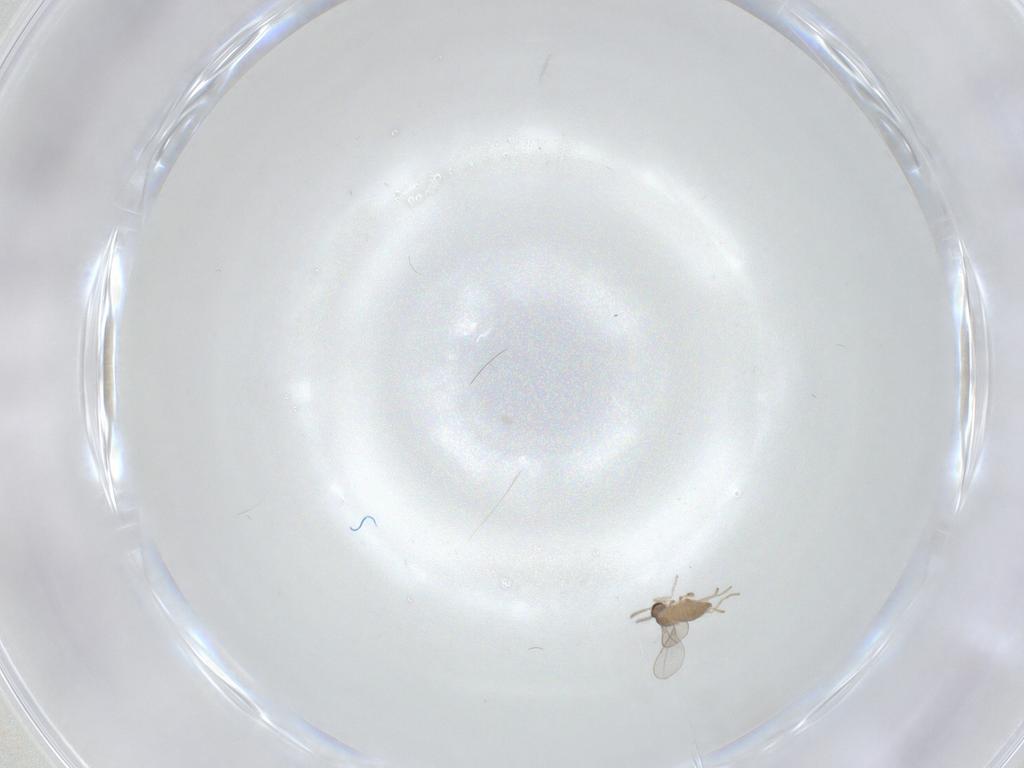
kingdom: Animalia
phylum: Arthropoda
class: Insecta
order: Diptera
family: Cecidomyiidae
